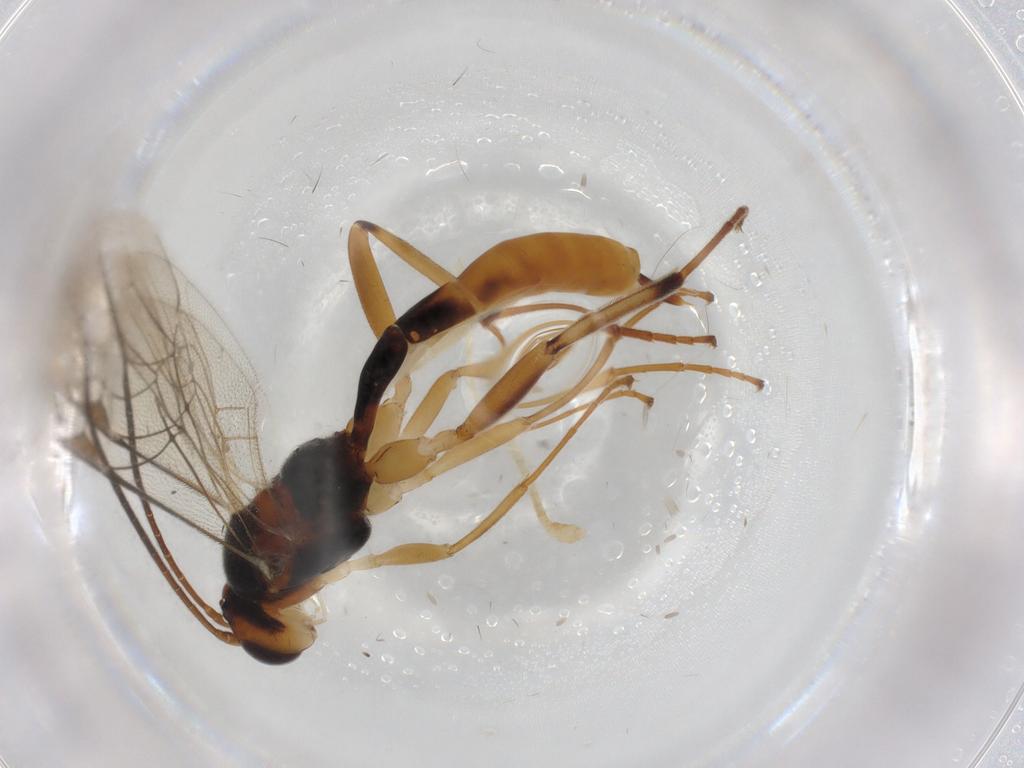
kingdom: Animalia
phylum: Arthropoda
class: Insecta
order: Hymenoptera
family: Ichneumonidae
